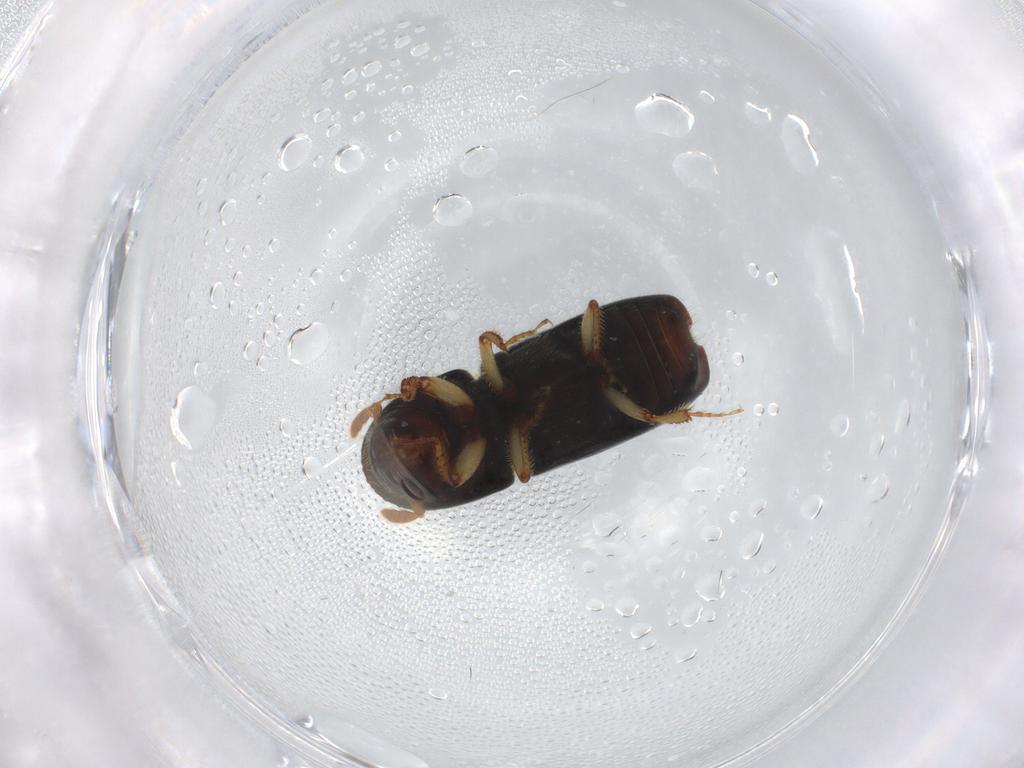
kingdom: Animalia
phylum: Arthropoda
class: Insecta
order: Coleoptera
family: Curculionidae
